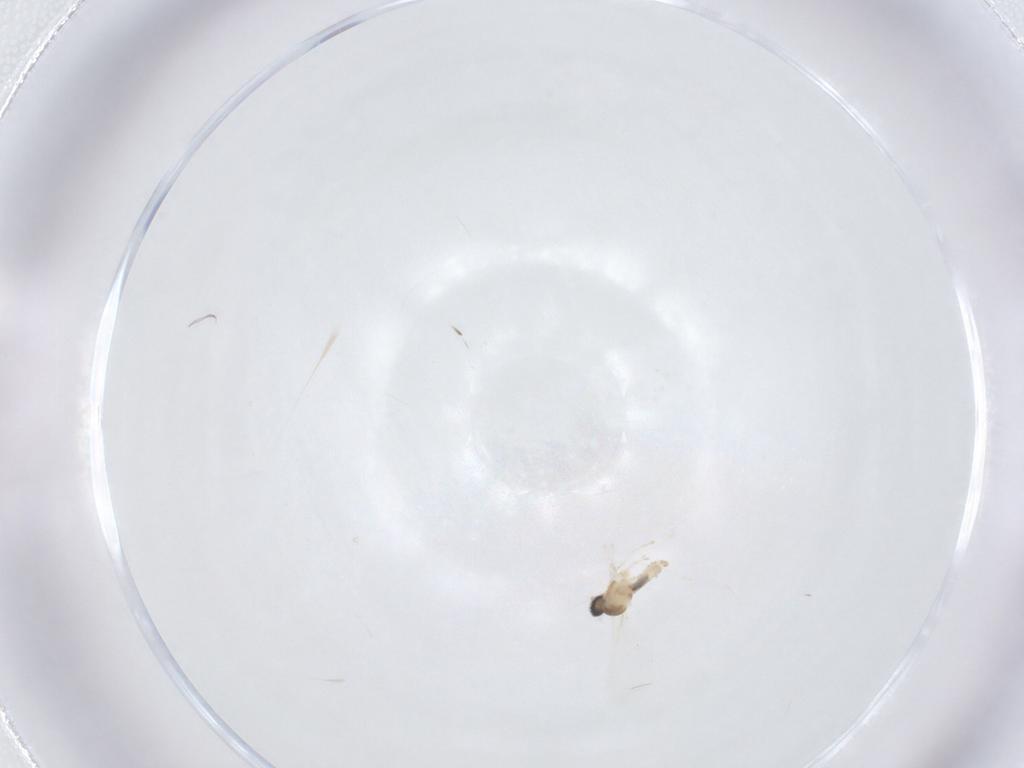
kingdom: Animalia
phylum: Arthropoda
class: Insecta
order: Diptera
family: Cecidomyiidae
